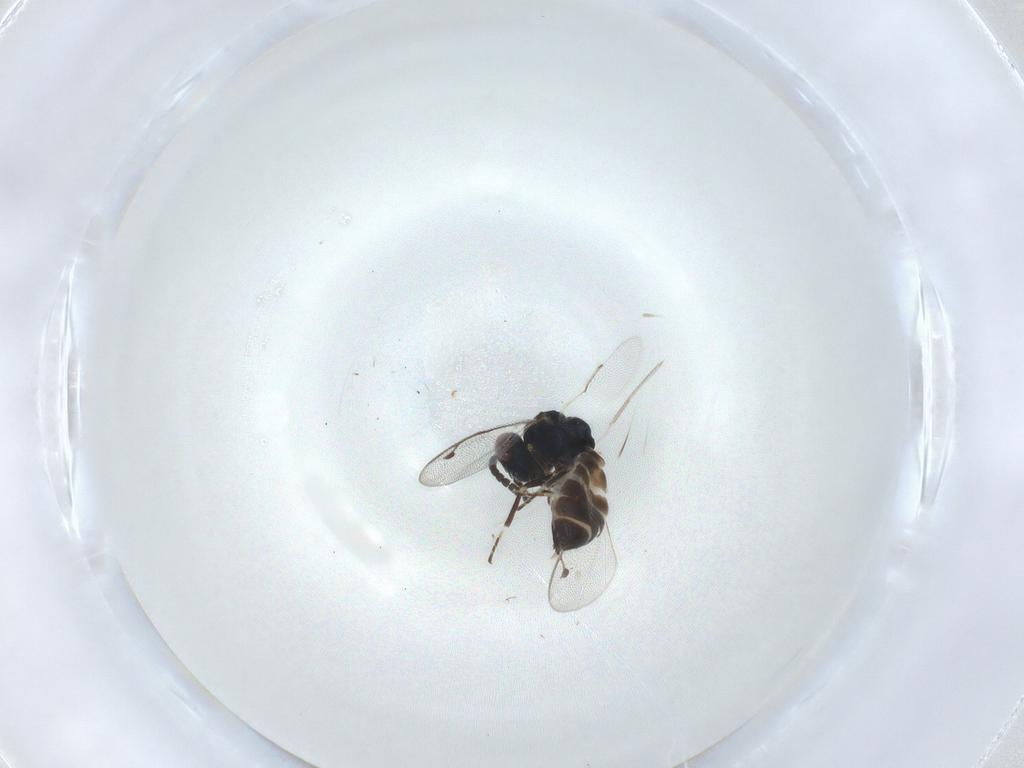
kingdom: Animalia
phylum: Arthropoda
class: Insecta
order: Hymenoptera
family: Pteromalidae
